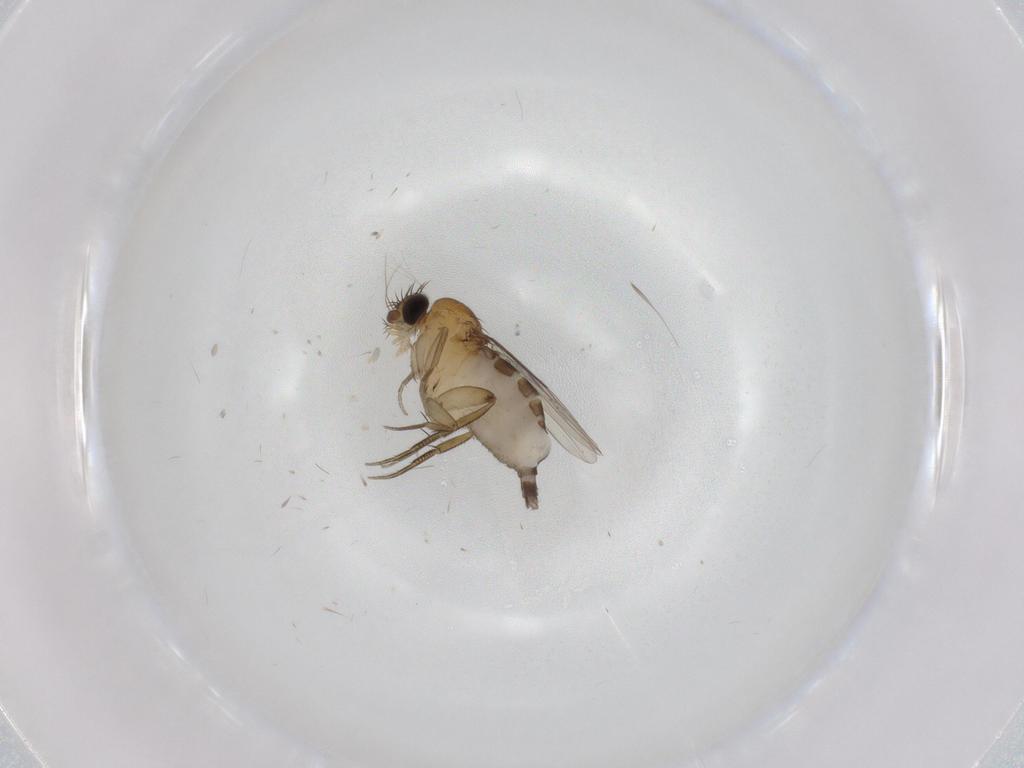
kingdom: Animalia
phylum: Arthropoda
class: Insecta
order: Diptera
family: Phoridae
